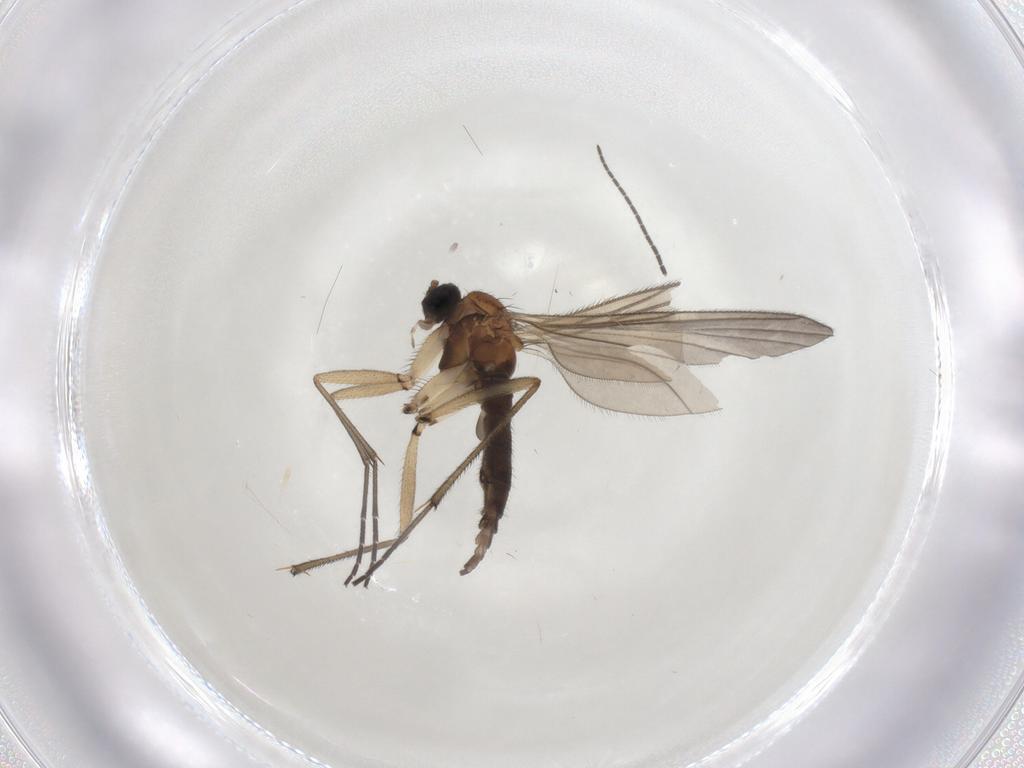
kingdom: Animalia
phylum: Arthropoda
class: Insecta
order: Diptera
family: Sciaridae
